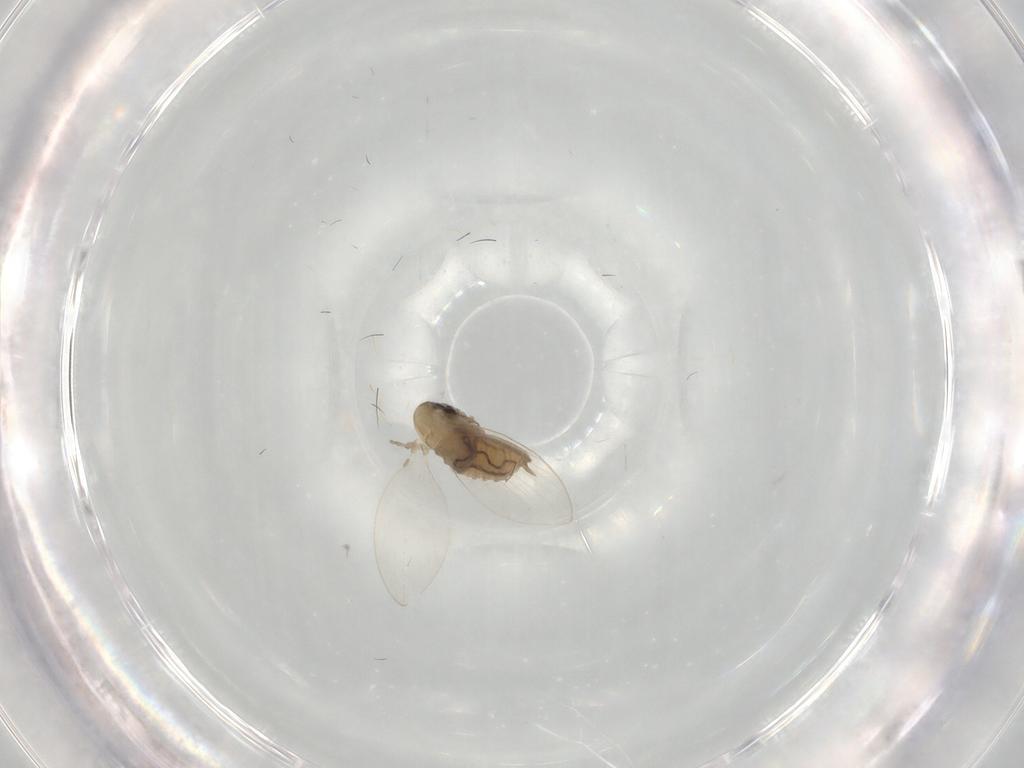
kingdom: Animalia
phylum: Arthropoda
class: Insecta
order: Diptera
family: Psychodidae
